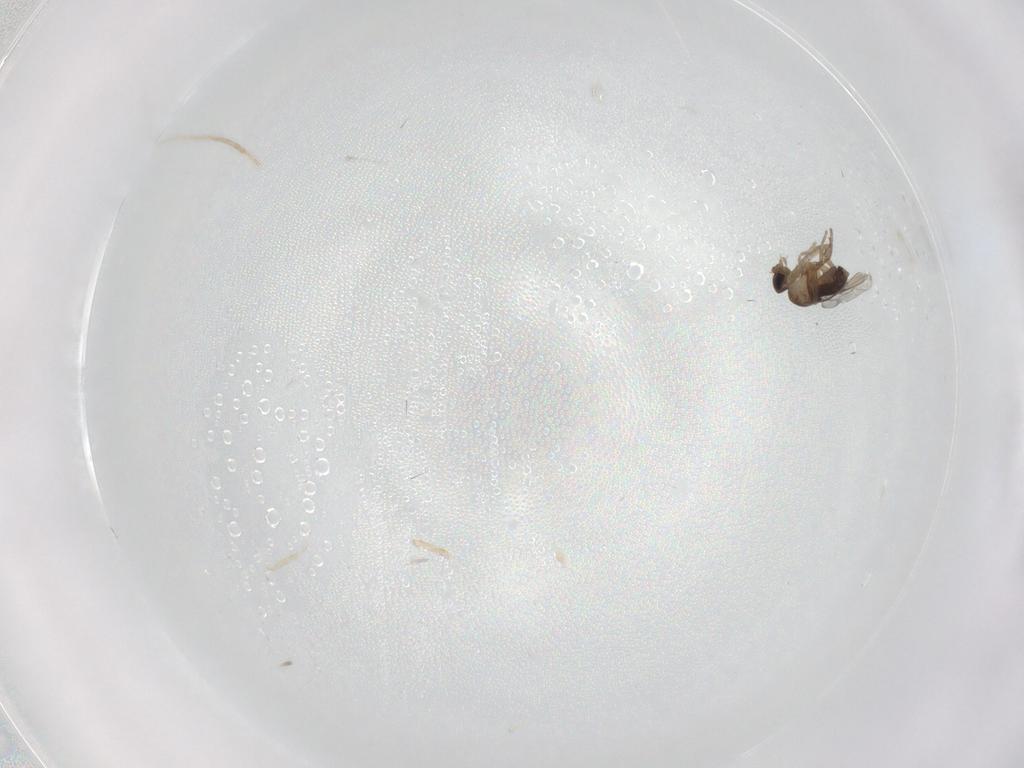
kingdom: Animalia
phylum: Arthropoda
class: Insecta
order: Diptera
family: Phoridae
